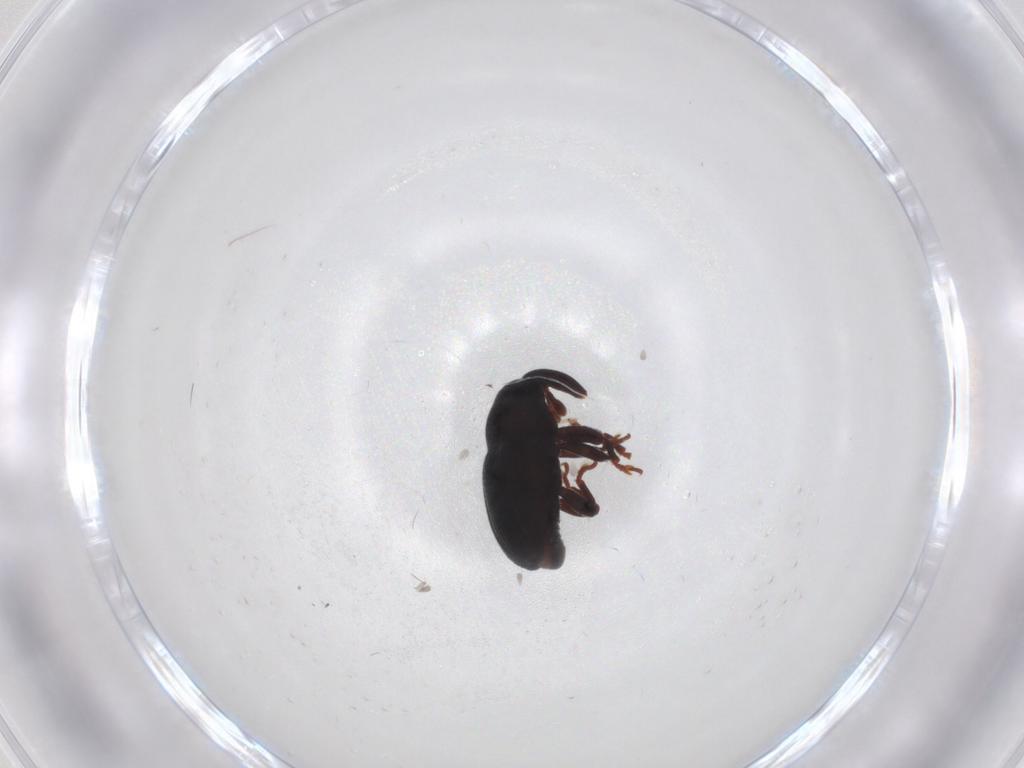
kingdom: Animalia
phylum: Arthropoda
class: Insecta
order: Coleoptera
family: Curculionidae
